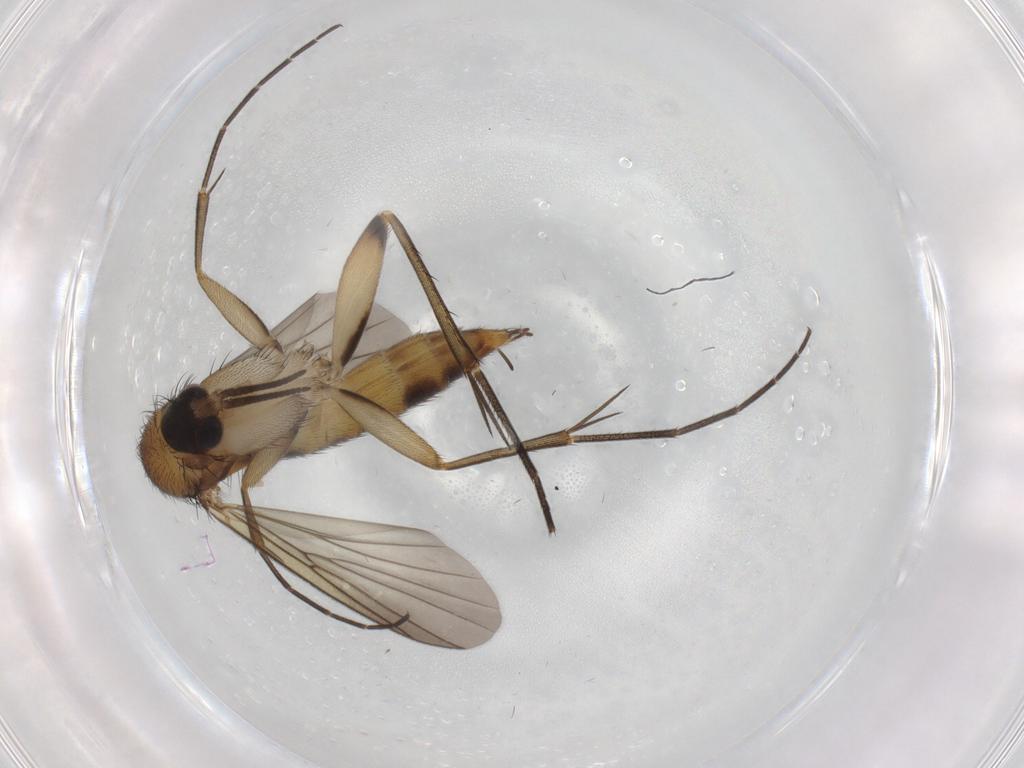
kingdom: Animalia
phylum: Arthropoda
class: Insecta
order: Diptera
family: Mycetophilidae
